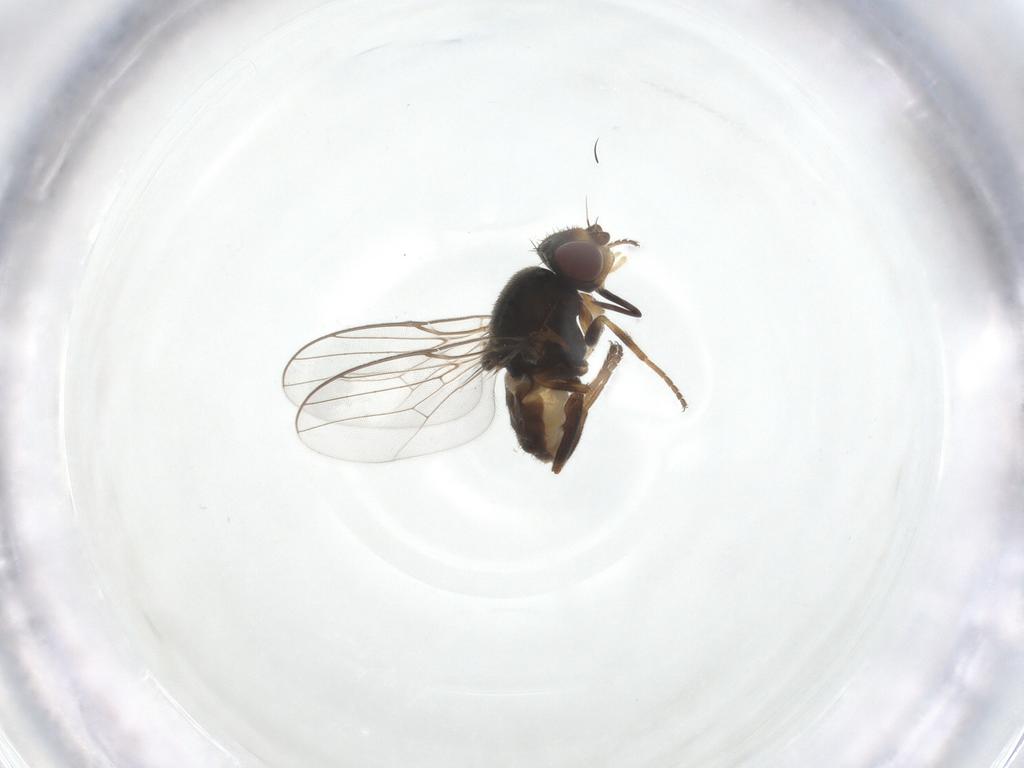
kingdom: Animalia
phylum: Arthropoda
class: Insecta
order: Diptera
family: Chloropidae
